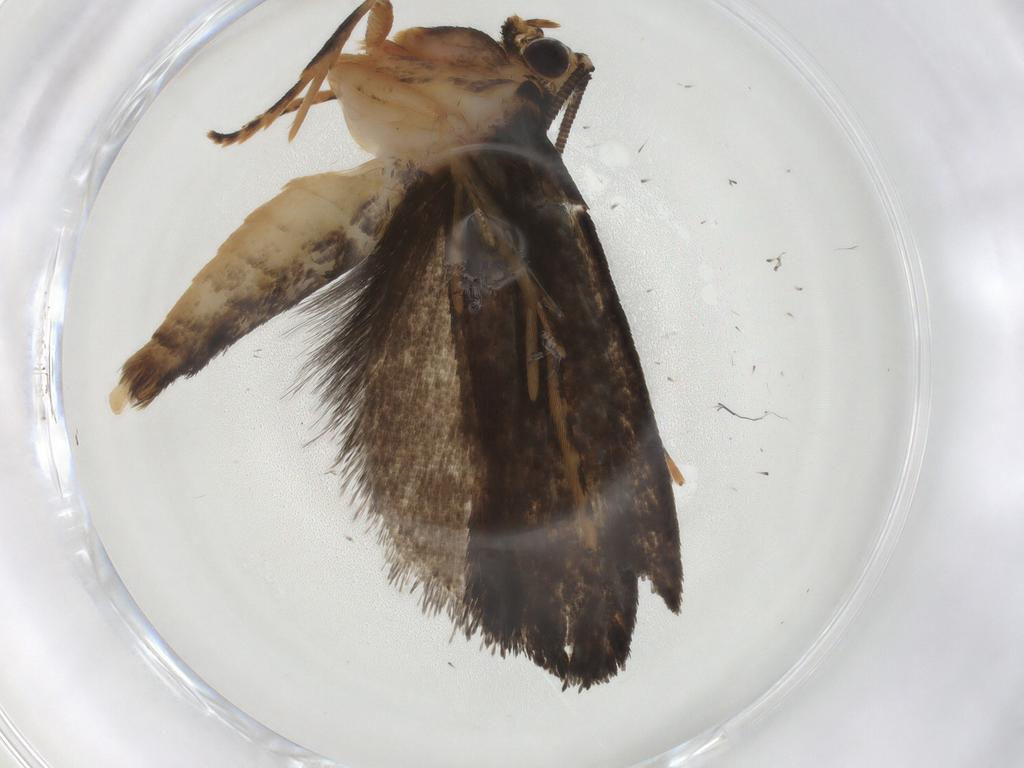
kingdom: Animalia
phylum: Arthropoda
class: Insecta
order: Lepidoptera
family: Tineidae
